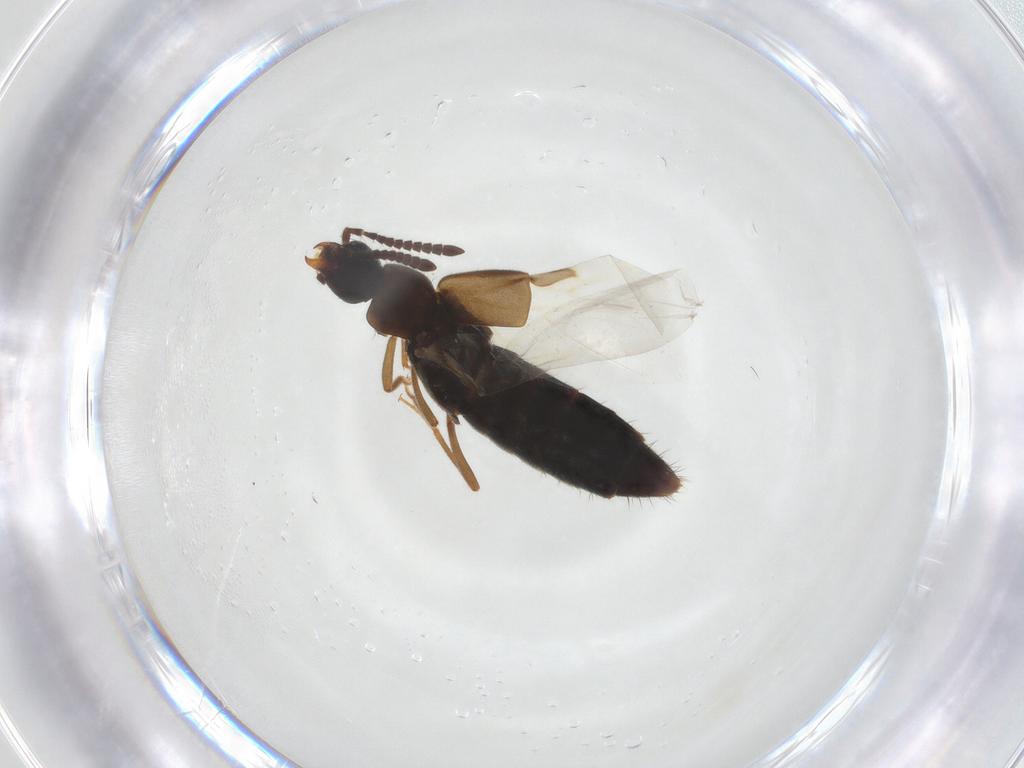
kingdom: Animalia
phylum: Arthropoda
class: Insecta
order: Coleoptera
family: Staphylinidae
